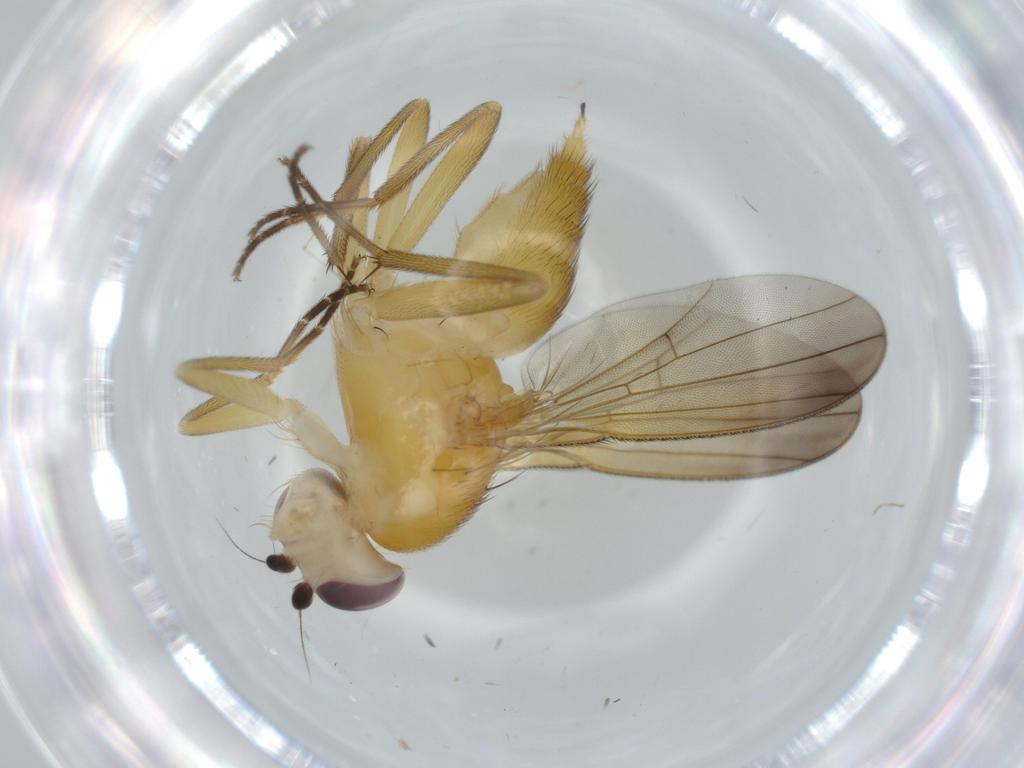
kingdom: Animalia
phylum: Arthropoda
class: Insecta
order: Diptera
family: Clusiidae
